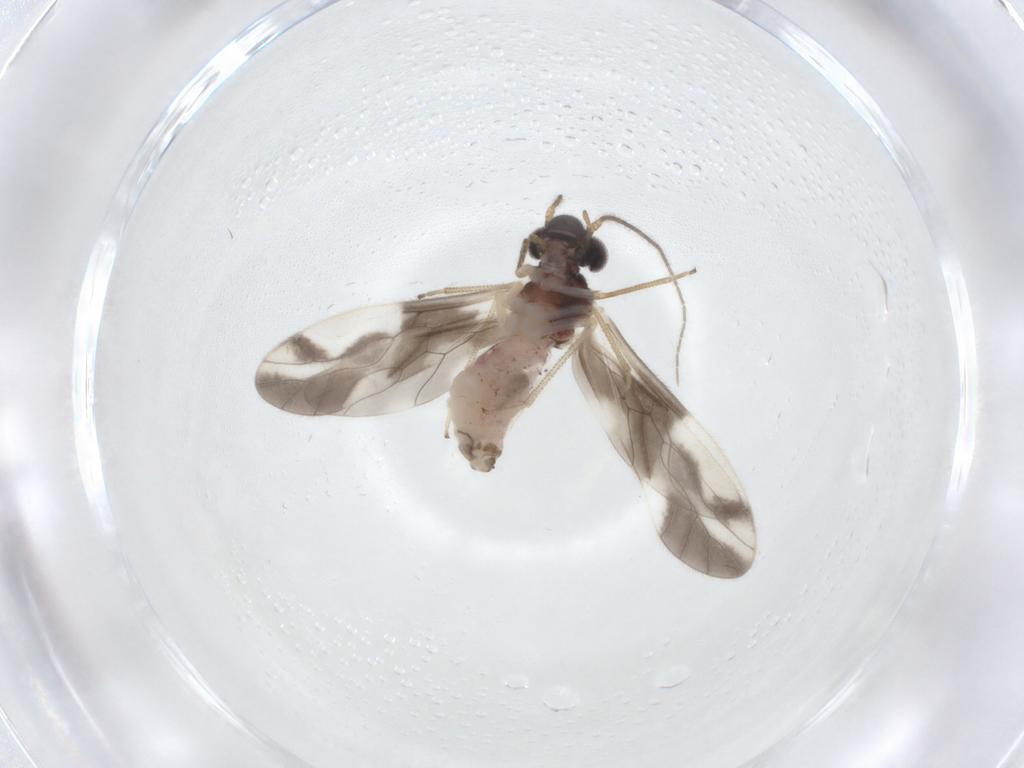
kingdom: Animalia
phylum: Arthropoda
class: Insecta
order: Psocodea
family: Caeciliusidae
